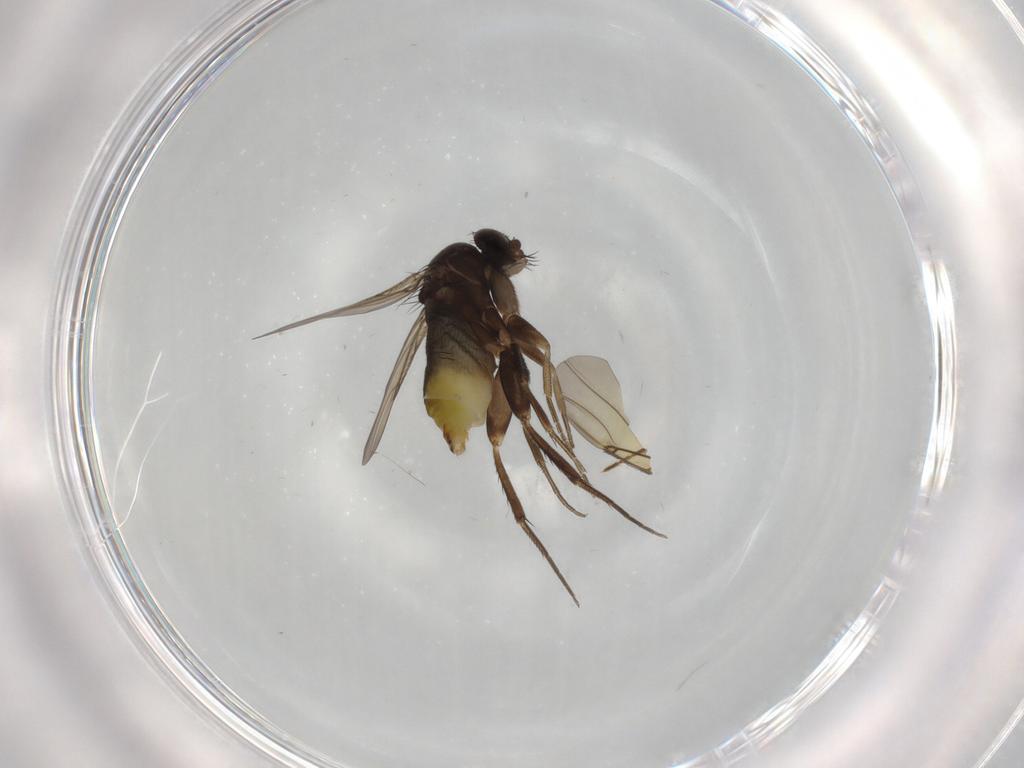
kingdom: Animalia
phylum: Arthropoda
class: Insecta
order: Diptera
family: Phoridae
